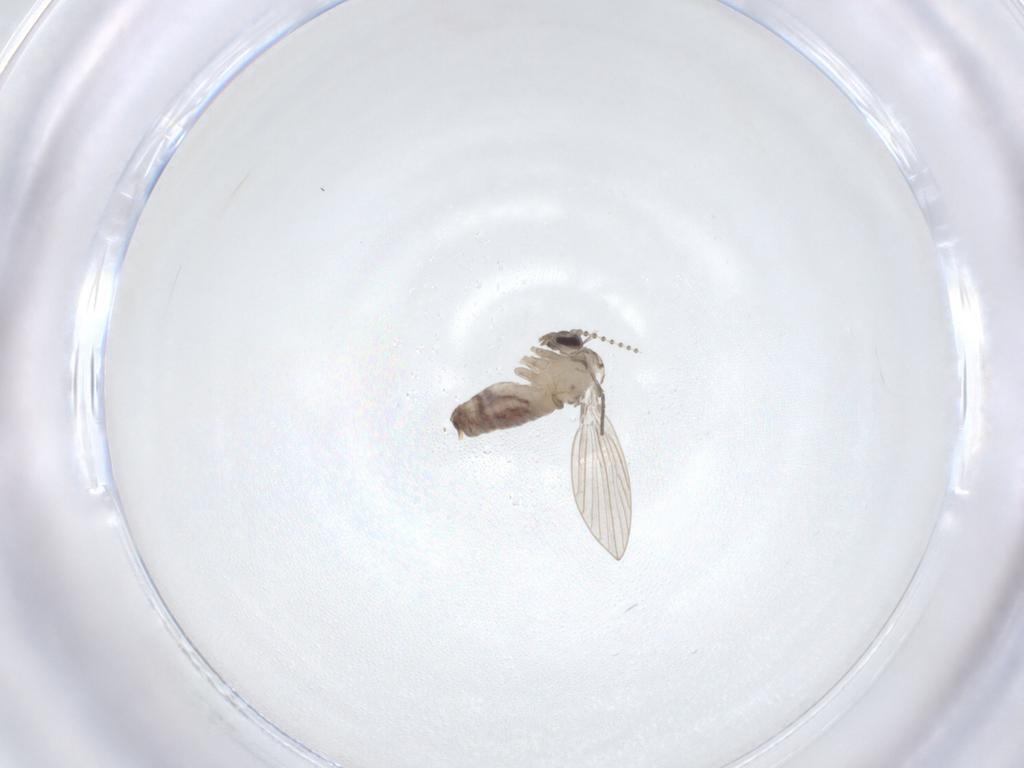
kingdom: Animalia
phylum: Arthropoda
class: Insecta
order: Diptera
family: Psychodidae
